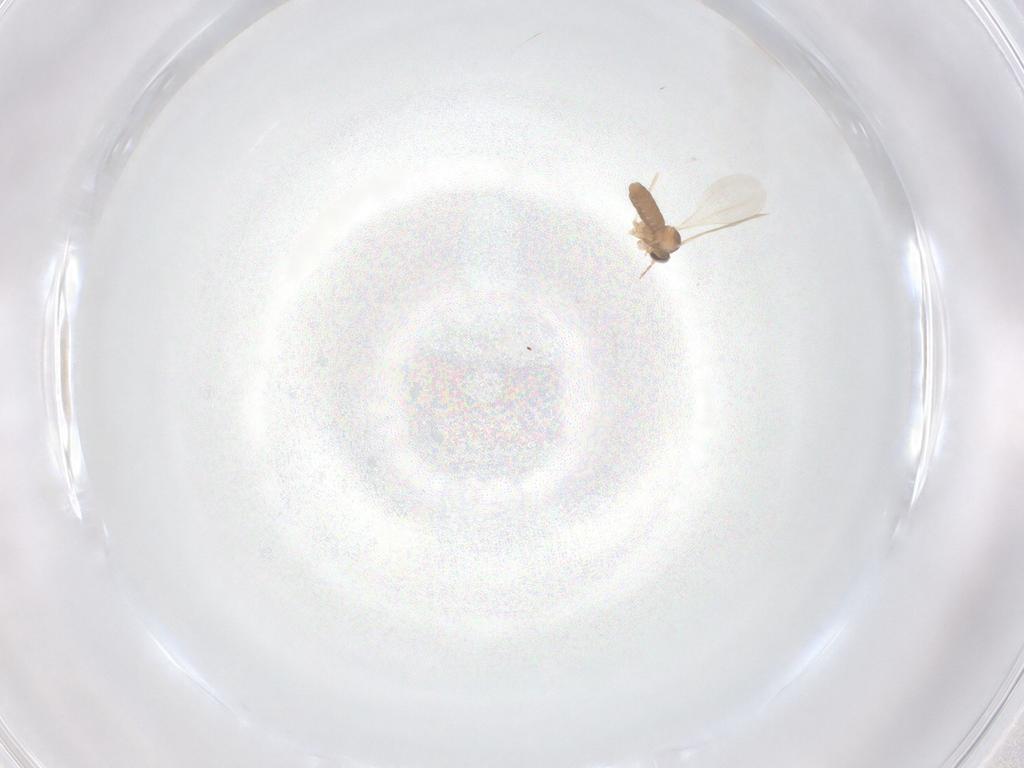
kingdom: Animalia
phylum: Arthropoda
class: Insecta
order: Diptera
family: Cecidomyiidae
